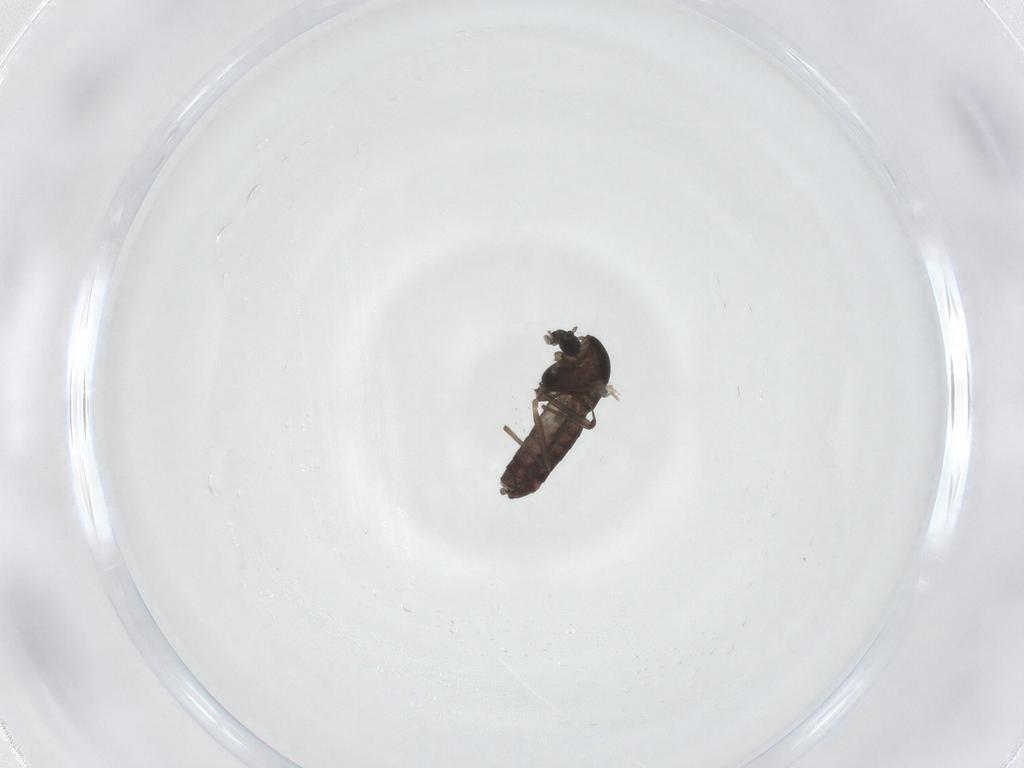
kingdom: Animalia
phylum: Arthropoda
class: Insecta
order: Diptera
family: Chironomidae
